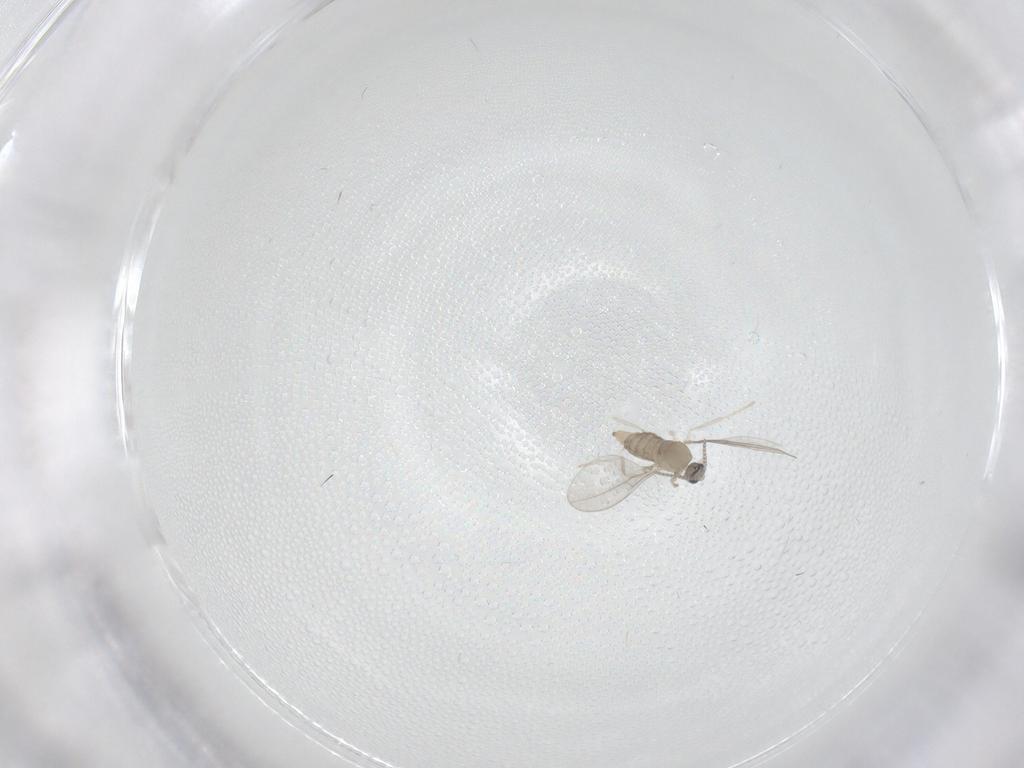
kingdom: Animalia
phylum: Arthropoda
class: Insecta
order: Diptera
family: Cecidomyiidae
